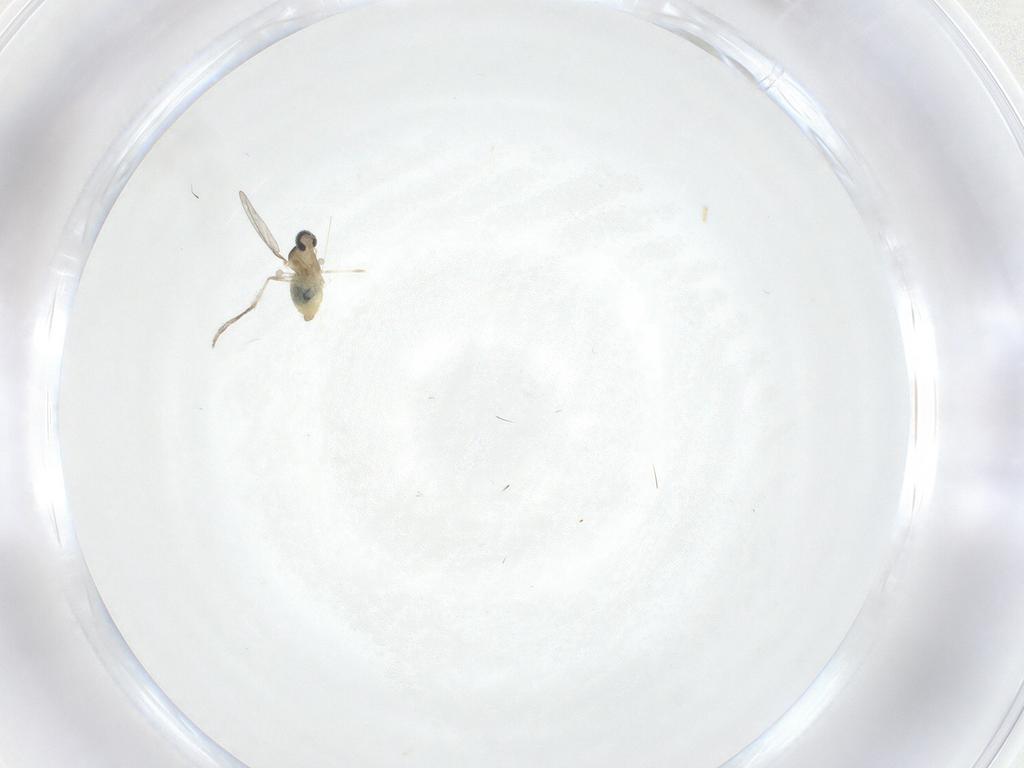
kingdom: Animalia
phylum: Arthropoda
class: Insecta
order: Diptera
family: Cecidomyiidae
